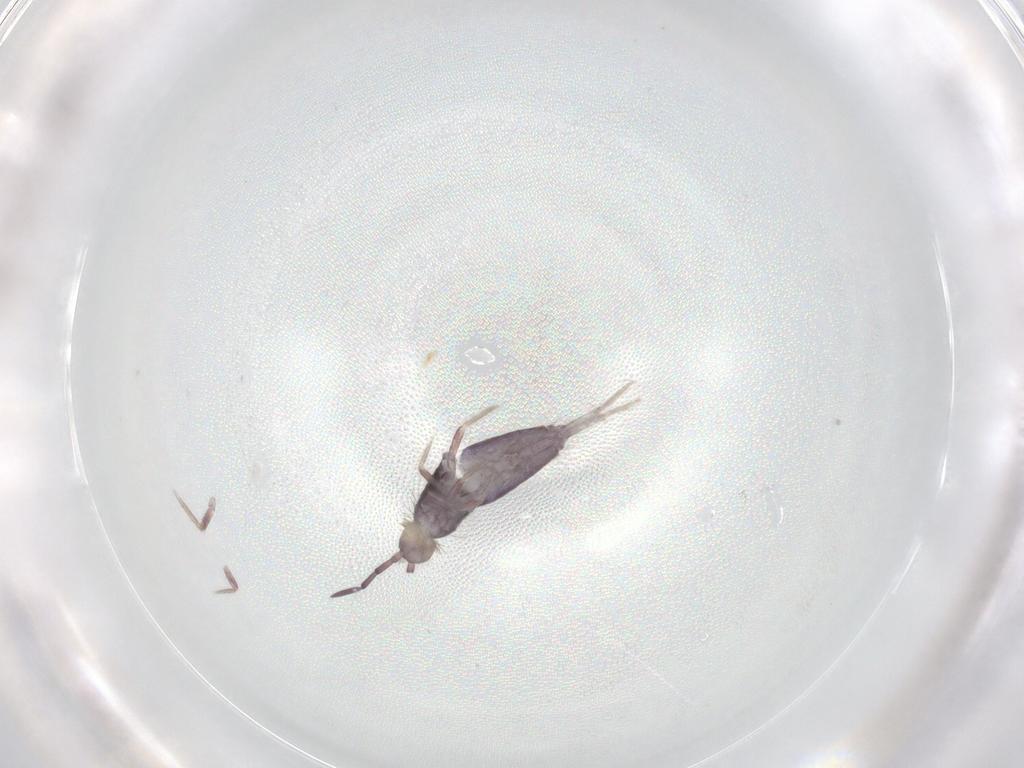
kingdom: Animalia
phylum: Arthropoda
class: Collembola
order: Entomobryomorpha
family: Entomobryidae
